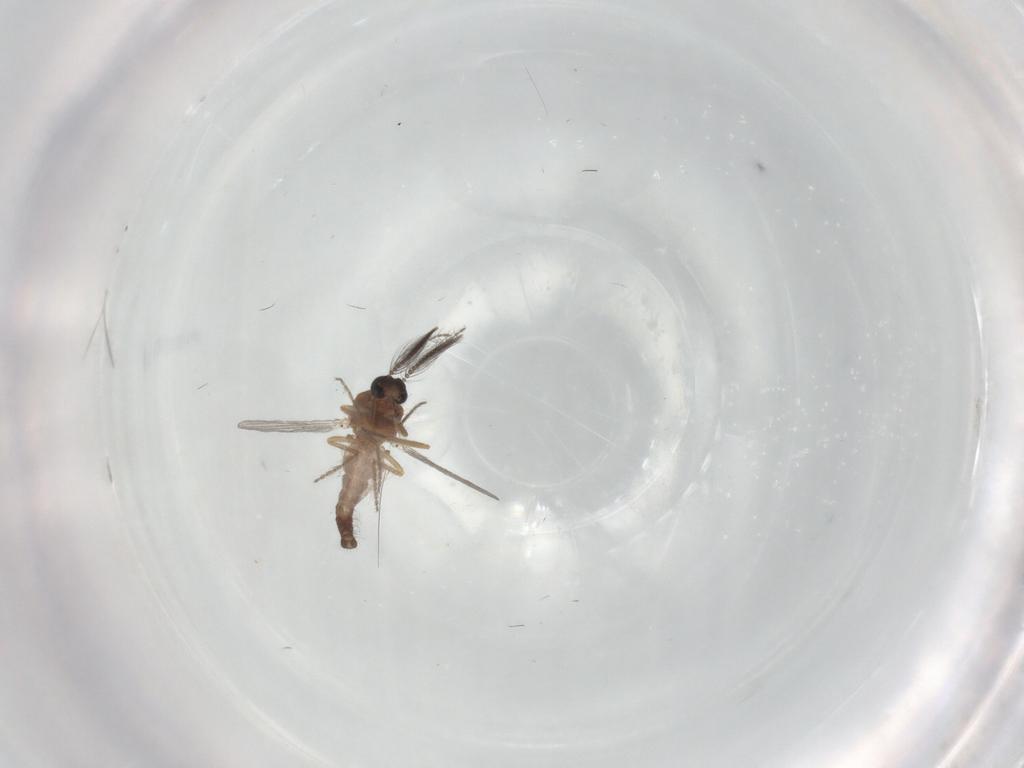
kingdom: Animalia
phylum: Arthropoda
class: Insecta
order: Diptera
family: Ceratopogonidae
